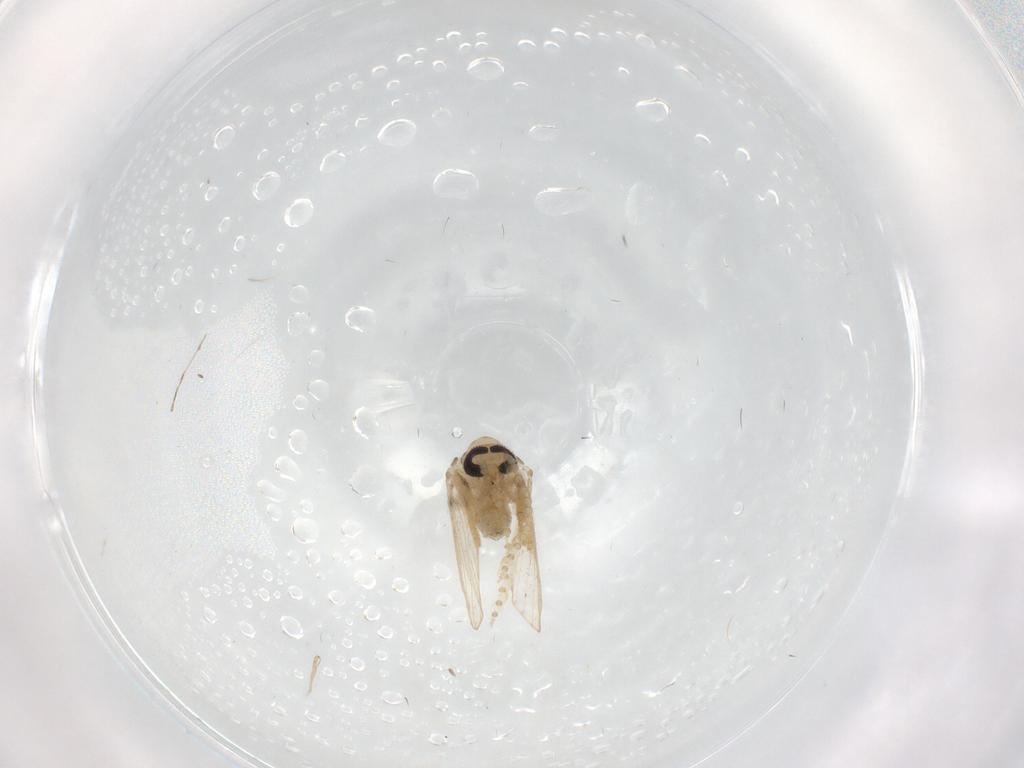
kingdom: Animalia
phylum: Arthropoda
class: Insecta
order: Diptera
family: Psychodidae
